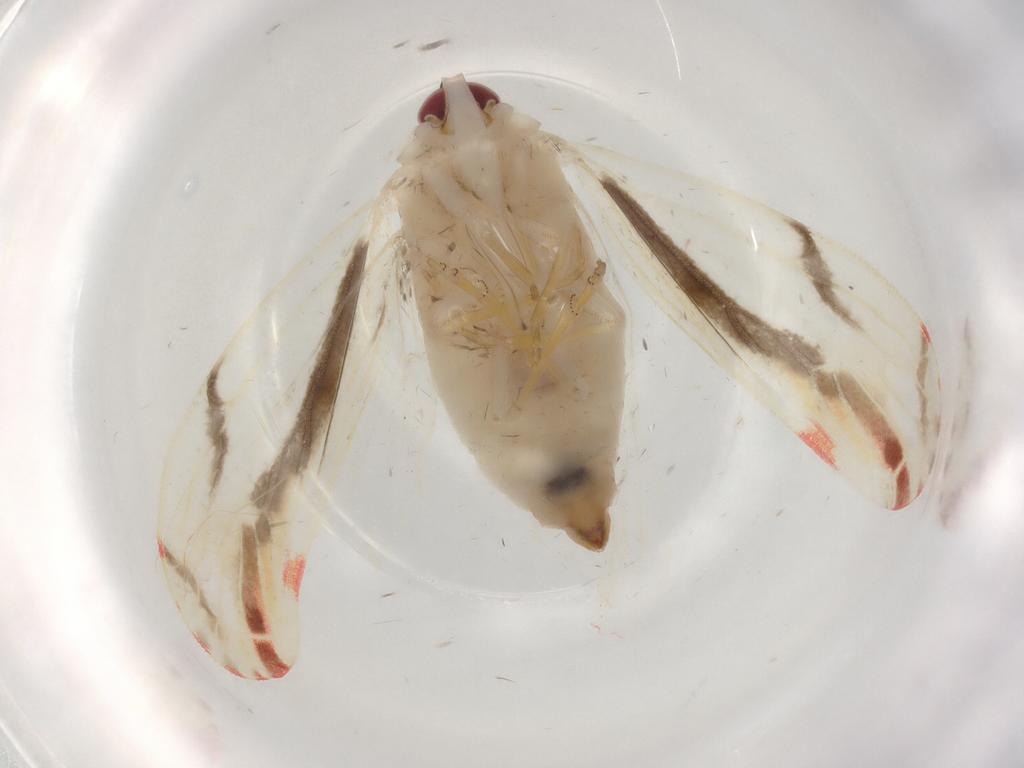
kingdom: Animalia
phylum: Arthropoda
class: Insecta
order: Hemiptera
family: Derbidae
